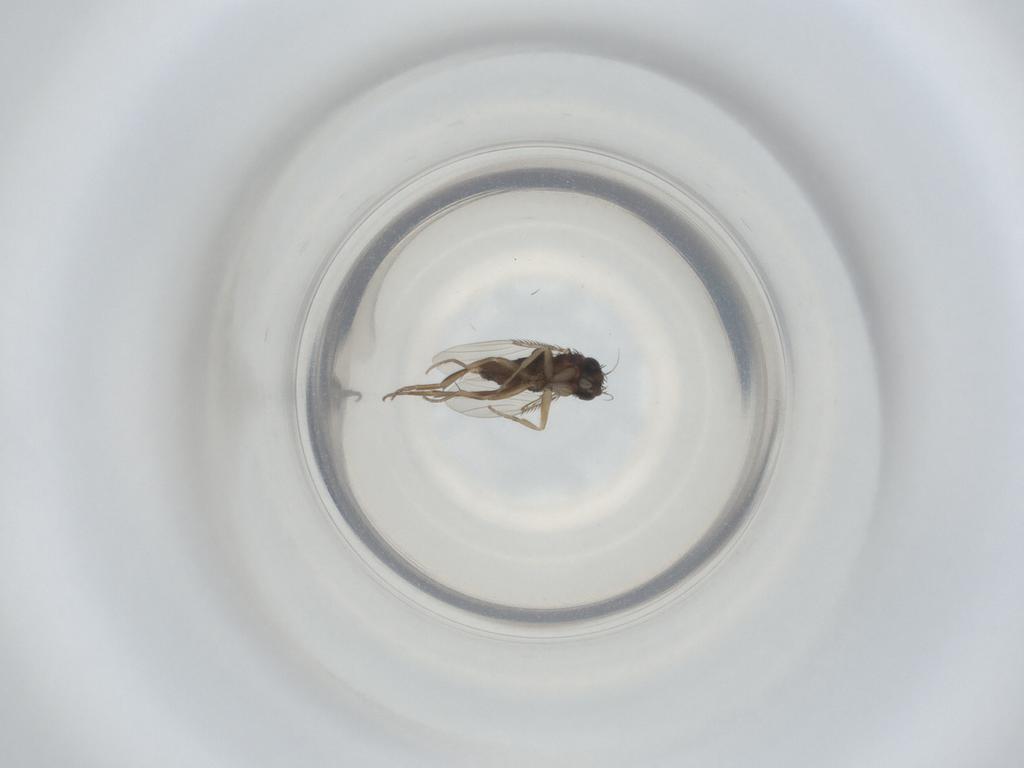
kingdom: Animalia
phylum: Arthropoda
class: Insecta
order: Diptera
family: Phoridae
